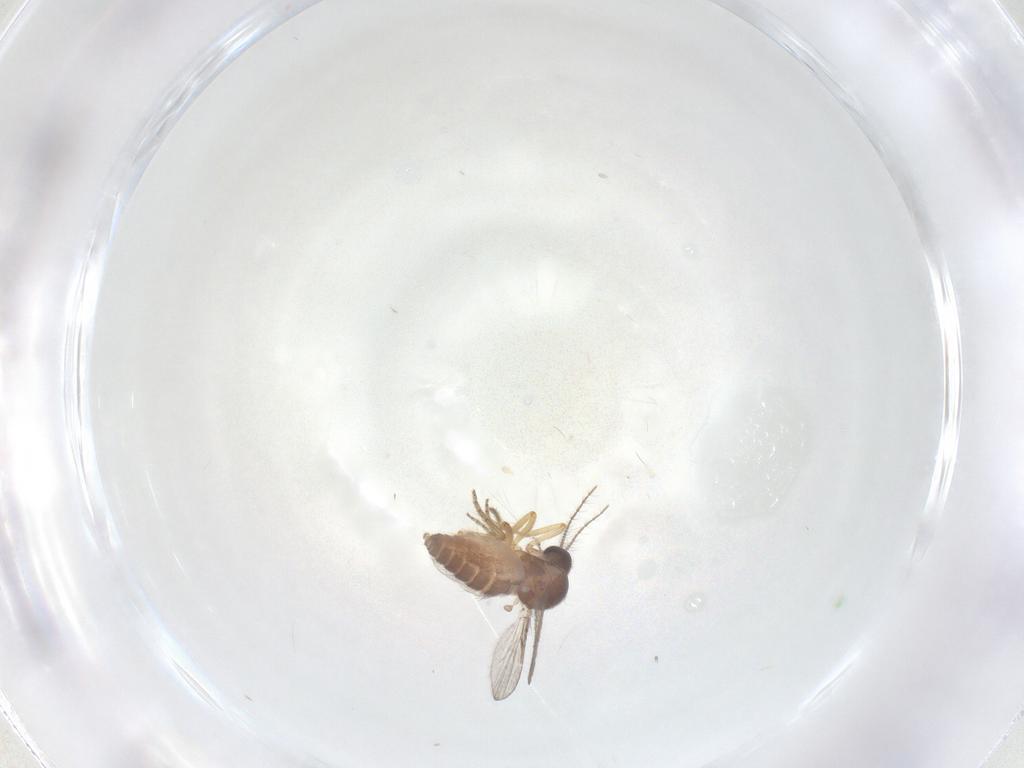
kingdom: Animalia
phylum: Arthropoda
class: Insecta
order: Diptera
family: Ceratopogonidae
